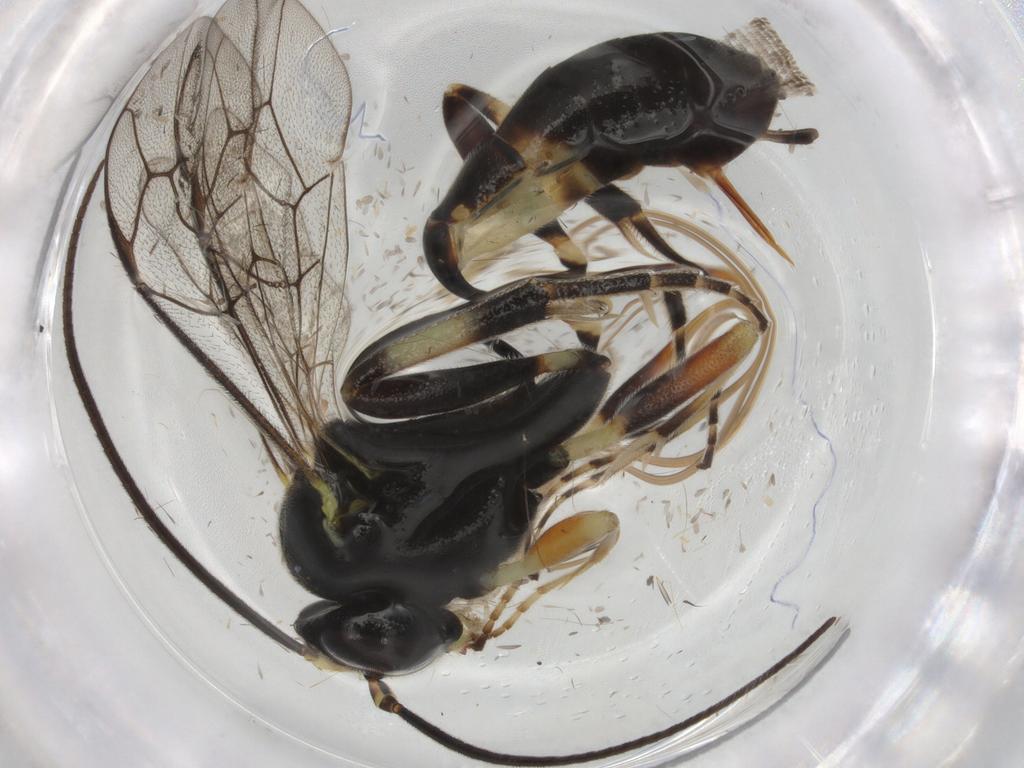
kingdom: Animalia
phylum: Arthropoda
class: Insecta
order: Hymenoptera
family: Ichneumonidae
